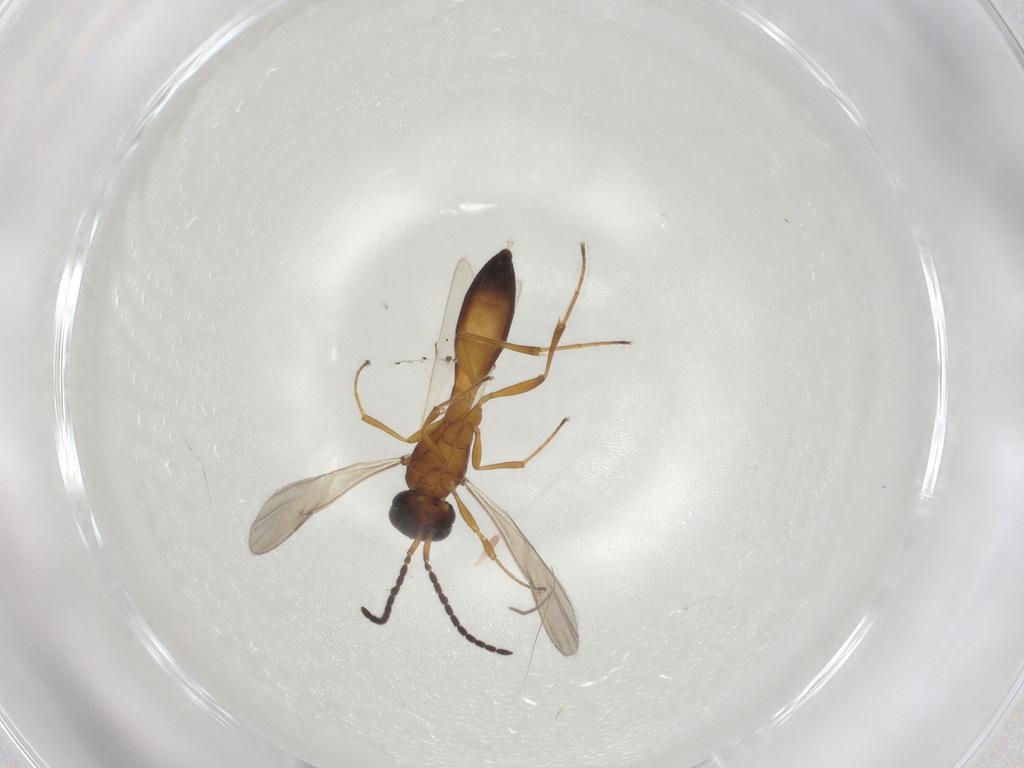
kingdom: Animalia
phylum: Arthropoda
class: Insecta
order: Hymenoptera
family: Scelionidae
